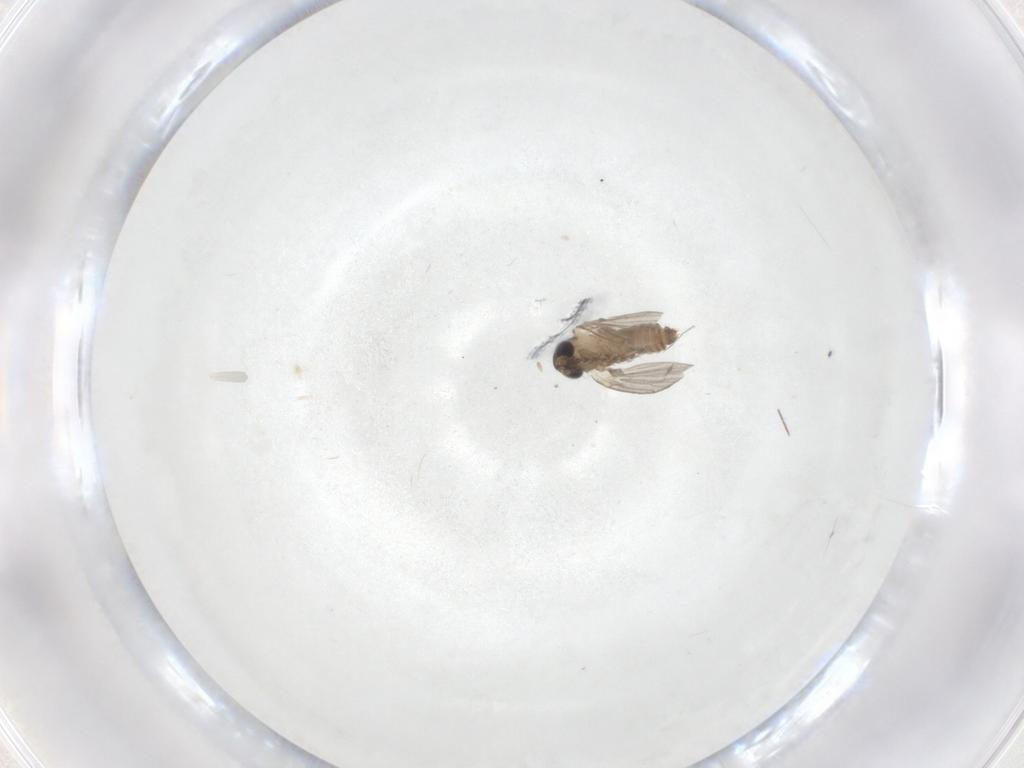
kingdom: Animalia
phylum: Arthropoda
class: Insecta
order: Diptera
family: Psychodidae
